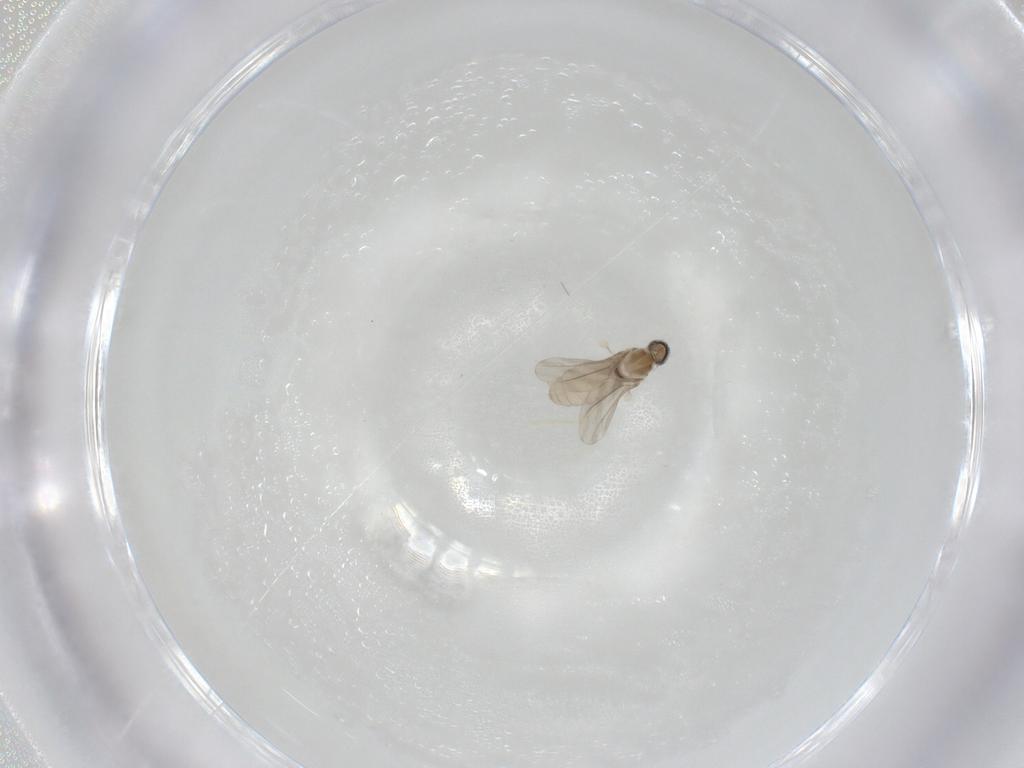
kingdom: Animalia
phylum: Arthropoda
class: Insecta
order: Diptera
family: Cecidomyiidae
